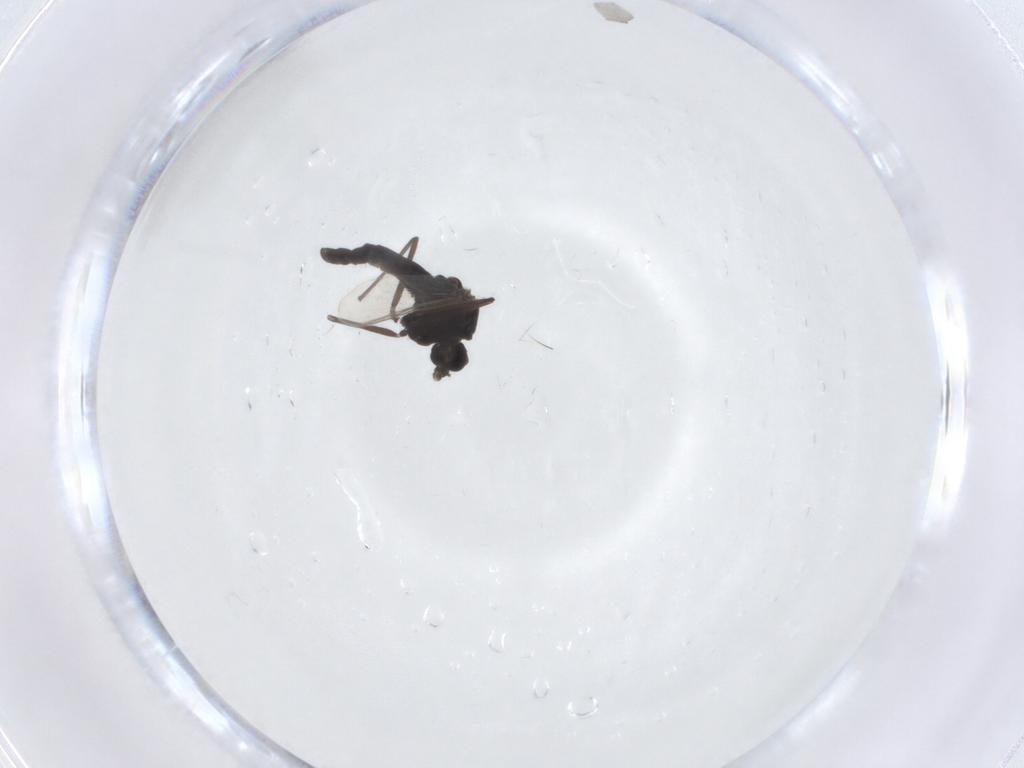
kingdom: Animalia
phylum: Arthropoda
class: Insecta
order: Diptera
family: Chironomidae
